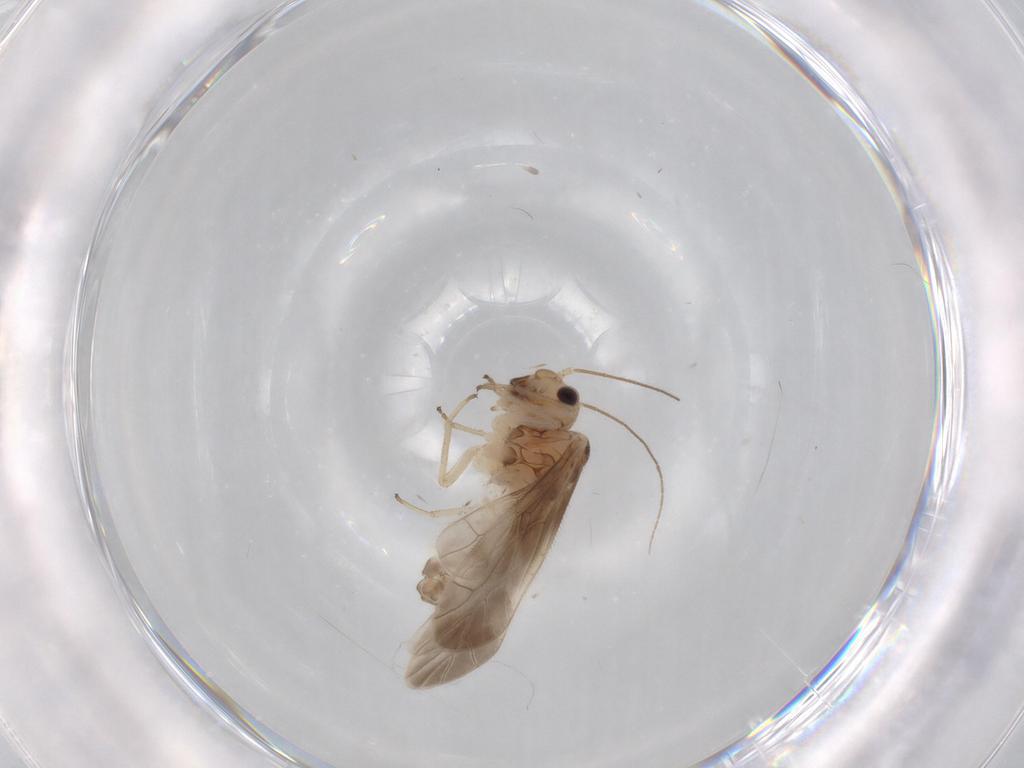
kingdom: Animalia
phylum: Arthropoda
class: Insecta
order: Psocodea
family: Caeciliusidae
